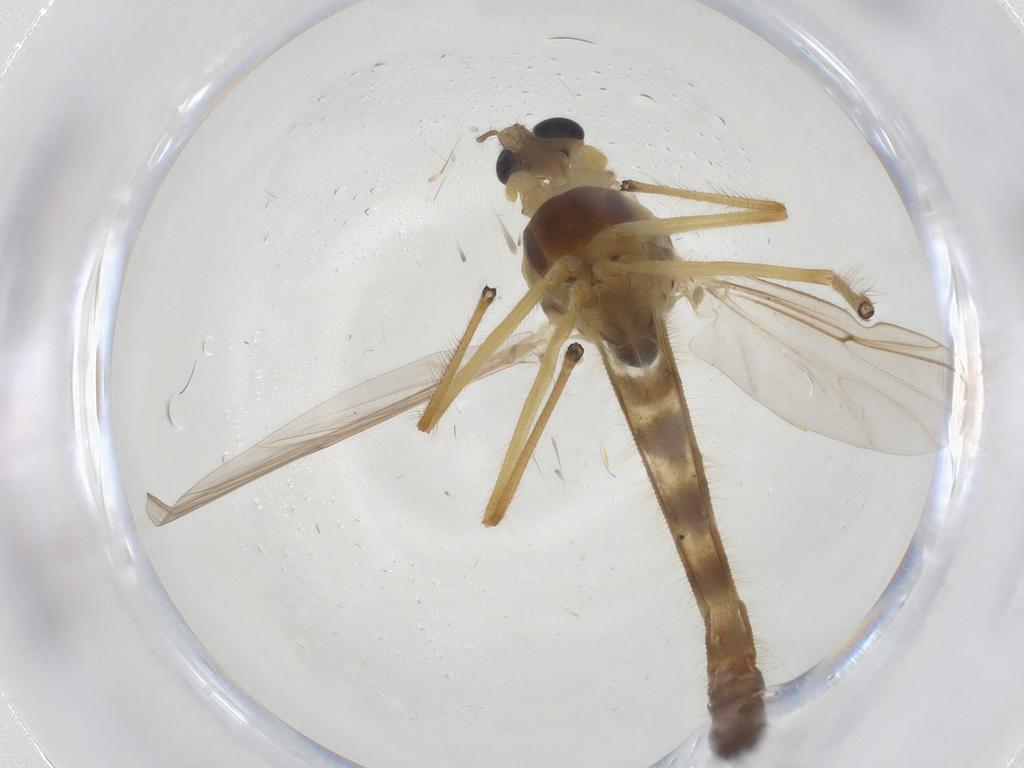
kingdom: Animalia
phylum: Arthropoda
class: Insecta
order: Diptera
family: Chironomidae
